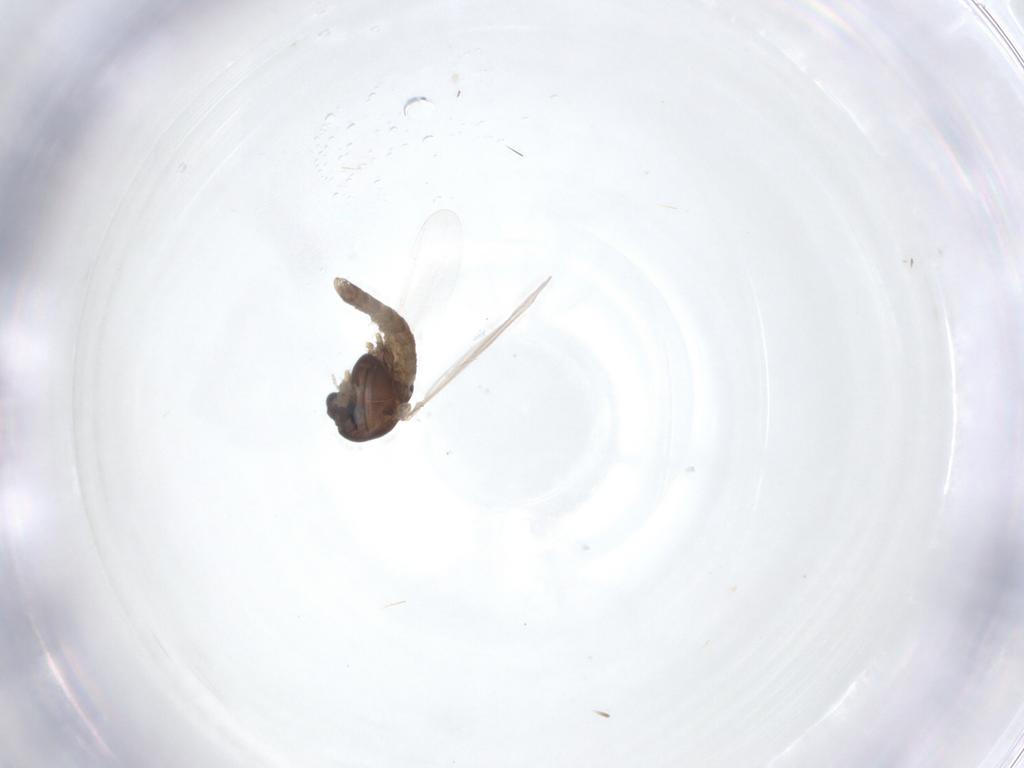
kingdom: Animalia
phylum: Arthropoda
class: Insecta
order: Diptera
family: Chironomidae
